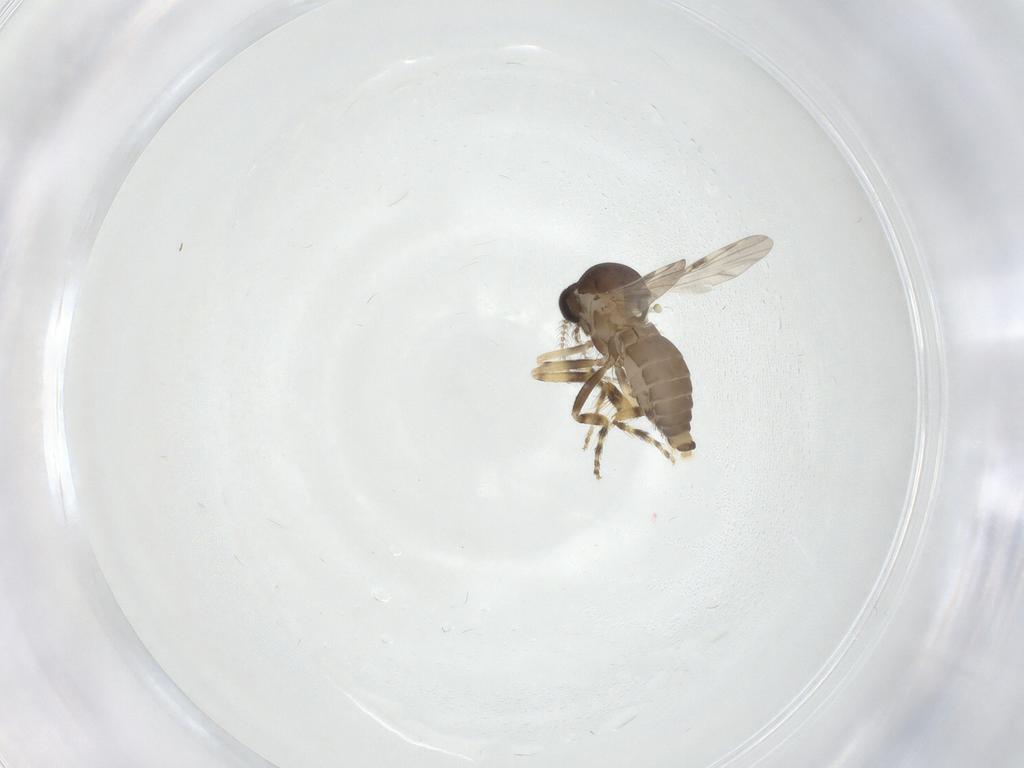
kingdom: Animalia
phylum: Arthropoda
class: Insecta
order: Diptera
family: Ceratopogonidae
